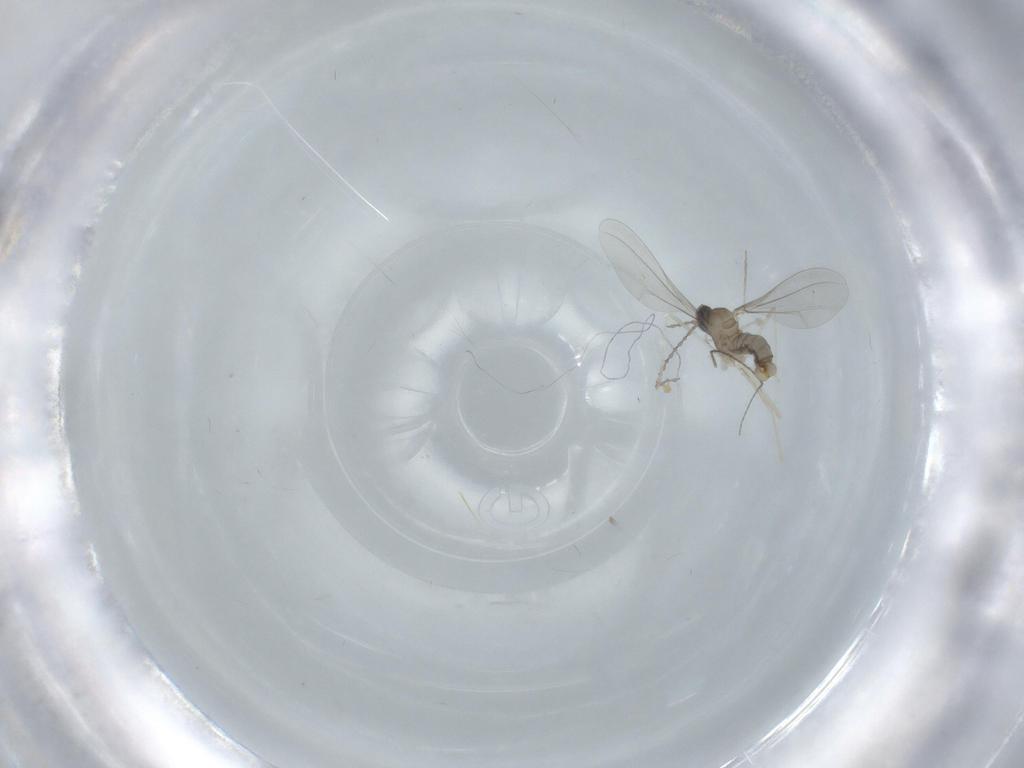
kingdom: Animalia
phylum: Arthropoda
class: Insecta
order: Diptera
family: Cecidomyiidae
